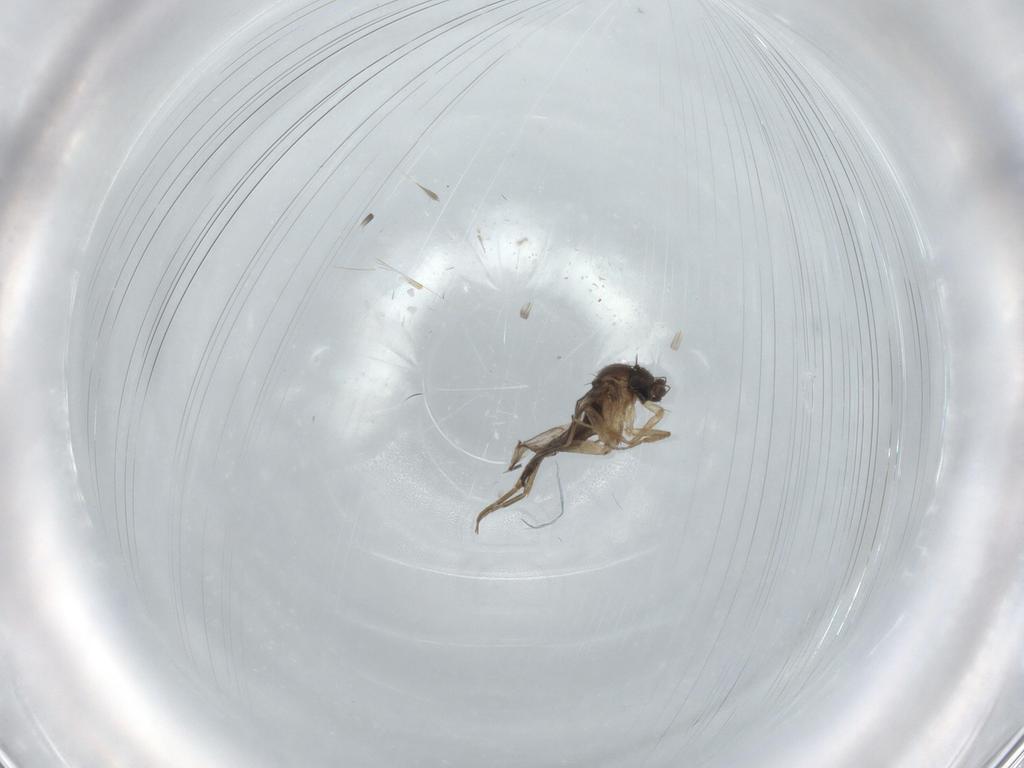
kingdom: Animalia
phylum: Arthropoda
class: Insecta
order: Diptera
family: Phoridae
